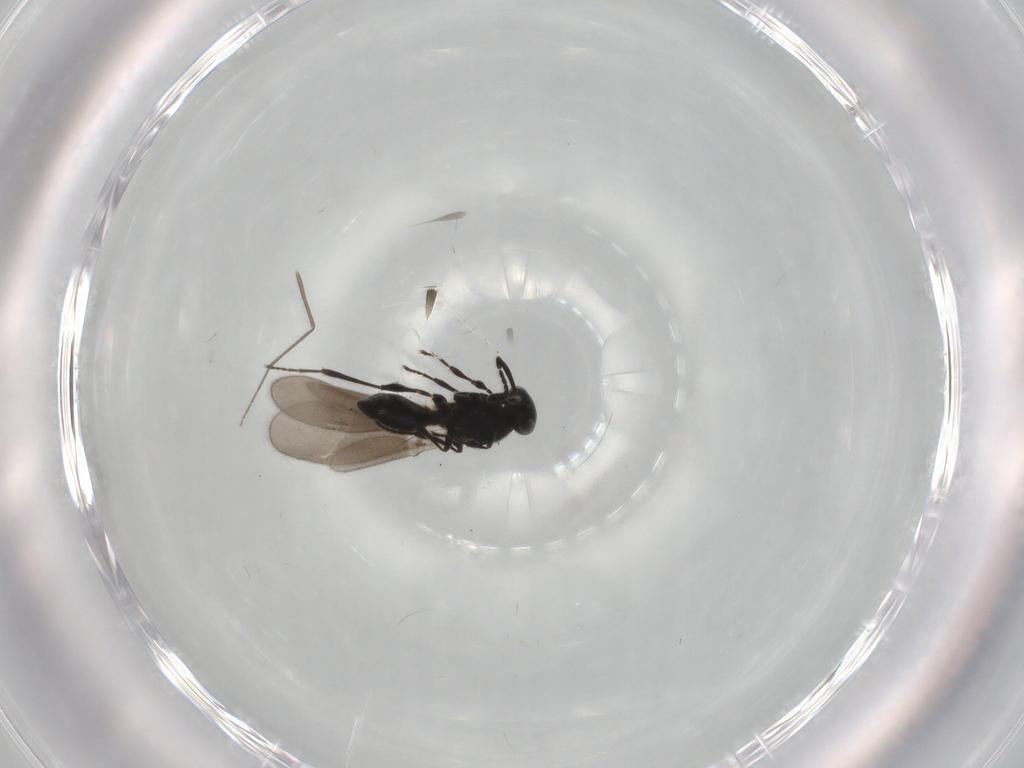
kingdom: Animalia
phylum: Arthropoda
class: Insecta
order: Hymenoptera
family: Platygastridae
